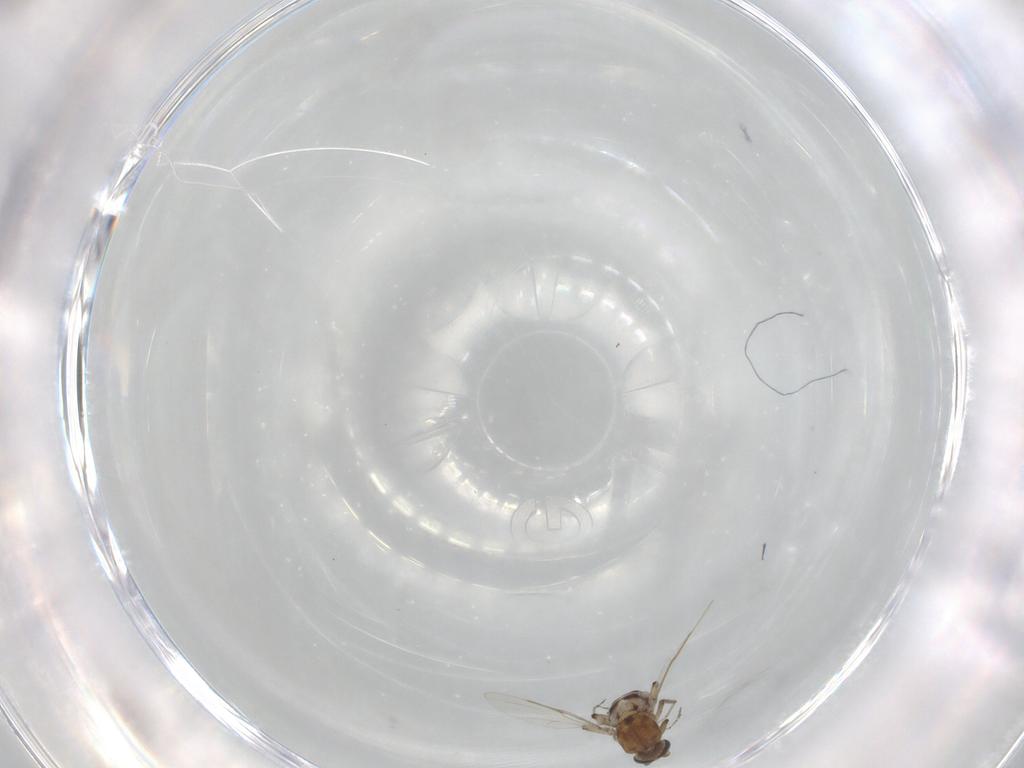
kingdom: Animalia
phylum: Arthropoda
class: Insecta
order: Diptera
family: Ceratopogonidae
